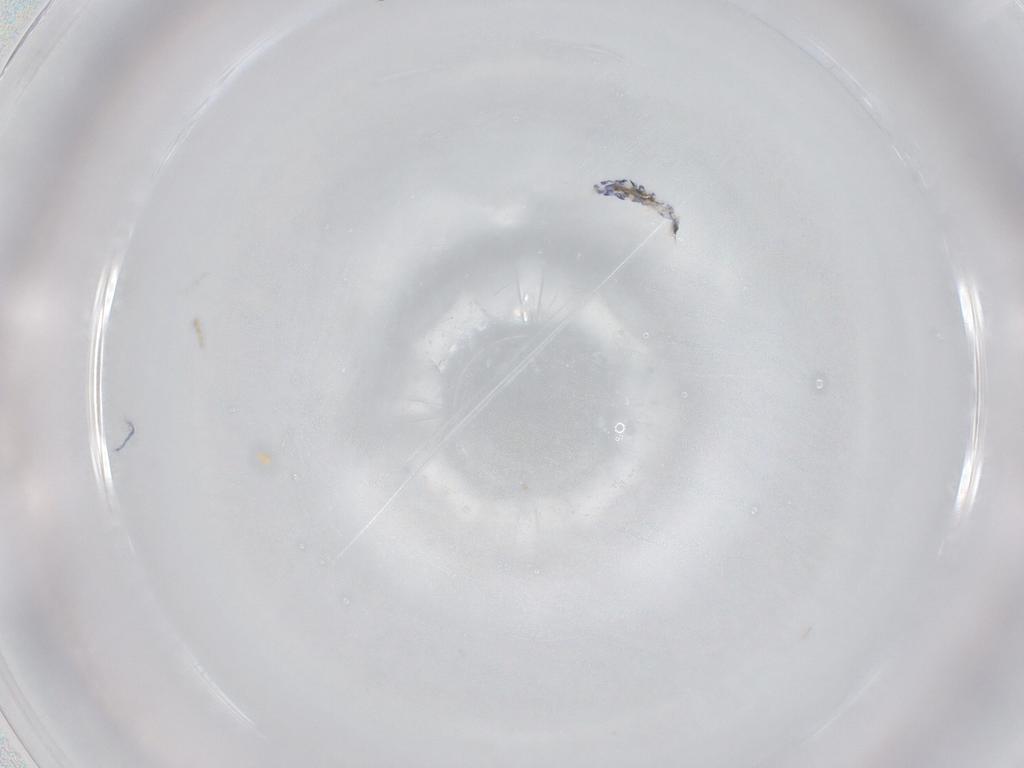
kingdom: Animalia
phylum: Arthropoda
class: Collembola
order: Entomobryomorpha
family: Entomobryidae
